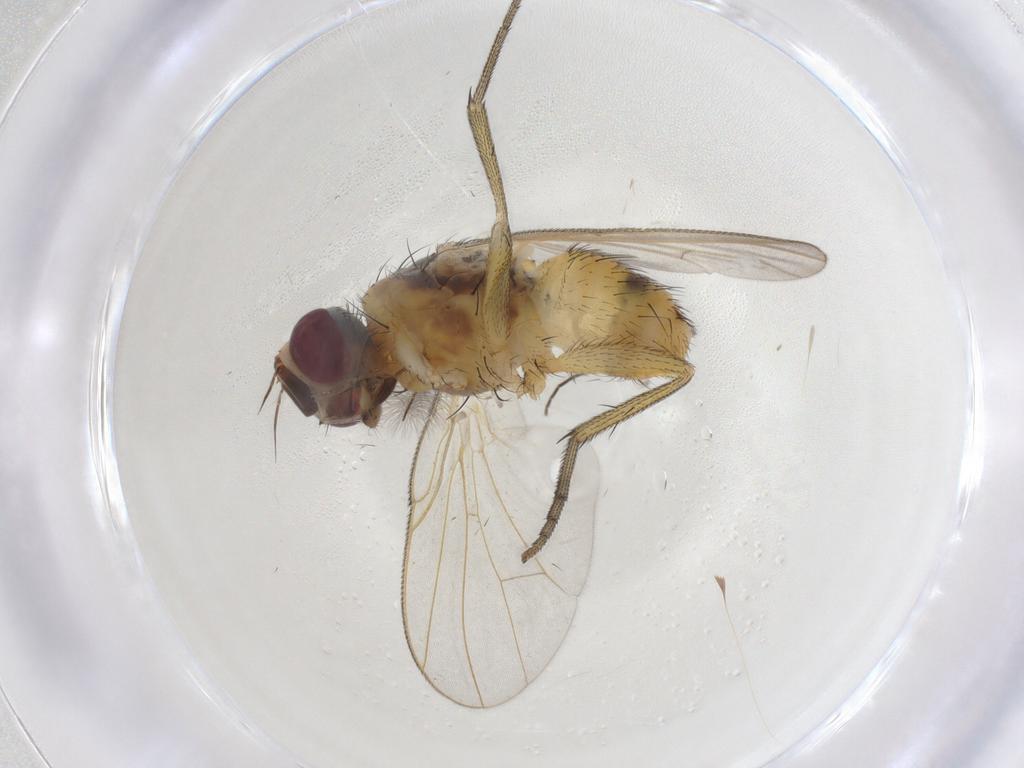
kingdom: Animalia
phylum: Arthropoda
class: Insecta
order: Diptera
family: Muscidae
